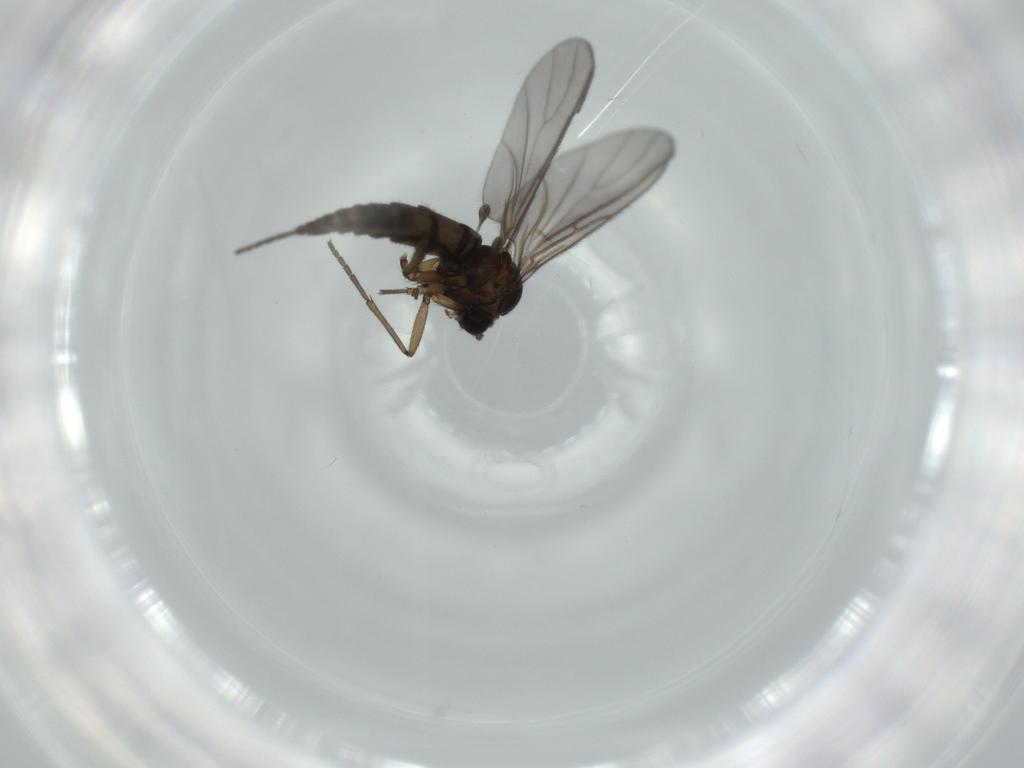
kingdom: Animalia
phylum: Arthropoda
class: Insecta
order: Diptera
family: Sciaridae
